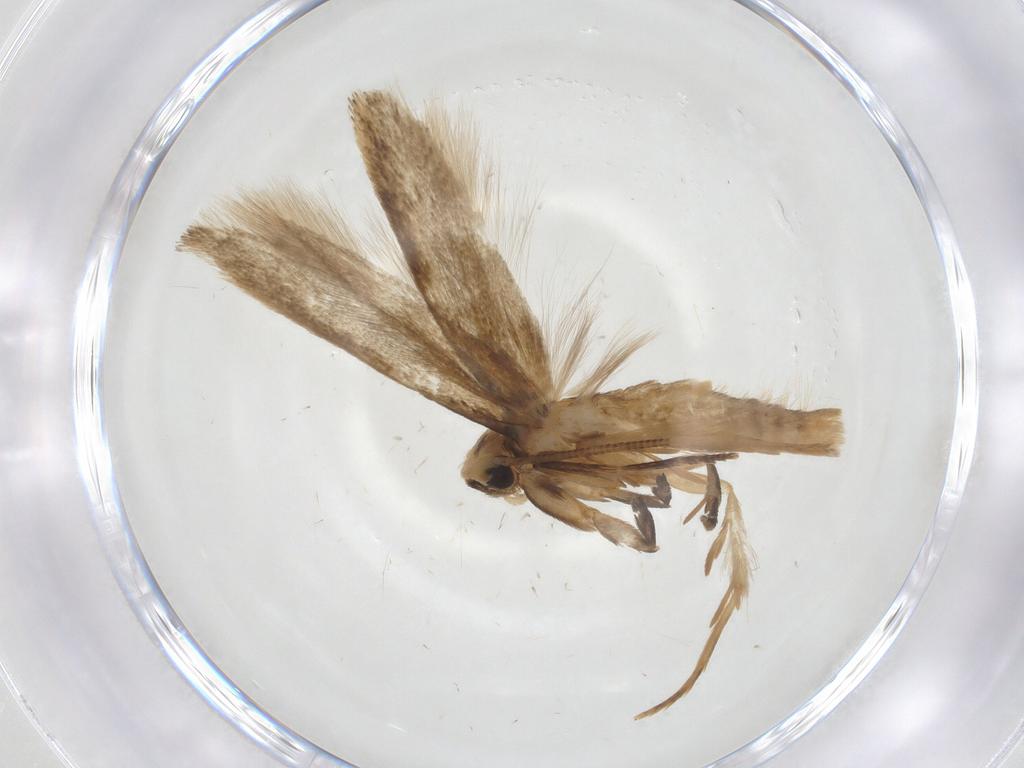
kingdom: Animalia
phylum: Arthropoda
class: Insecta
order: Lepidoptera
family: Tineidae
